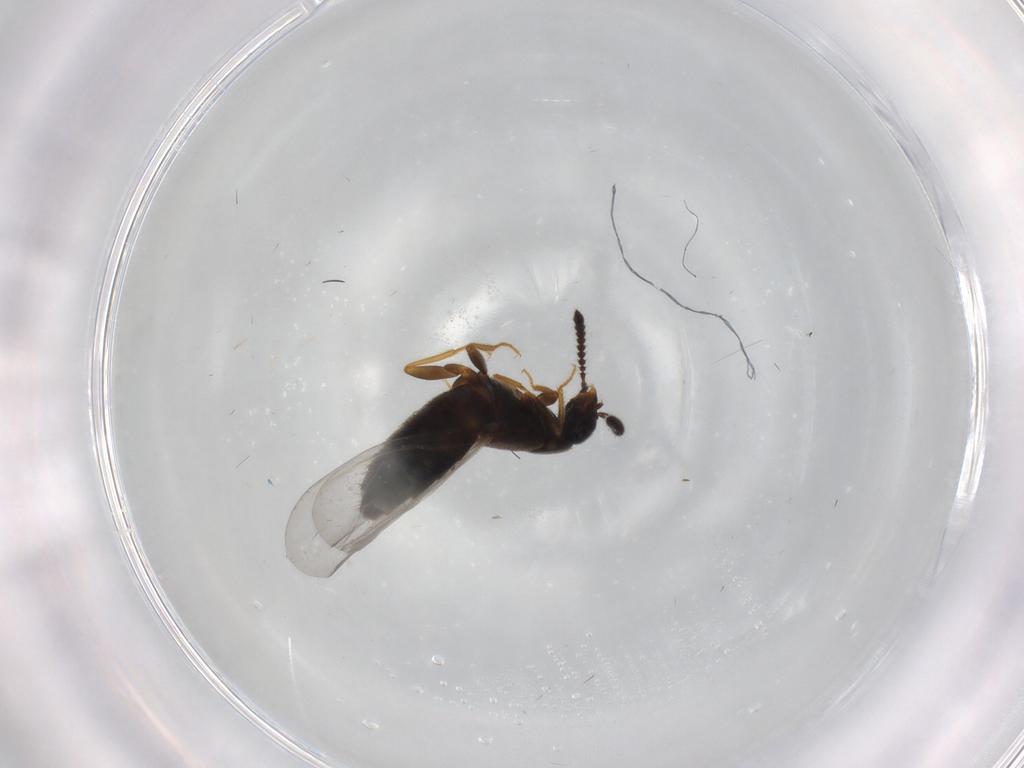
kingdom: Animalia
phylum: Arthropoda
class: Insecta
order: Coleoptera
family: Staphylinidae
